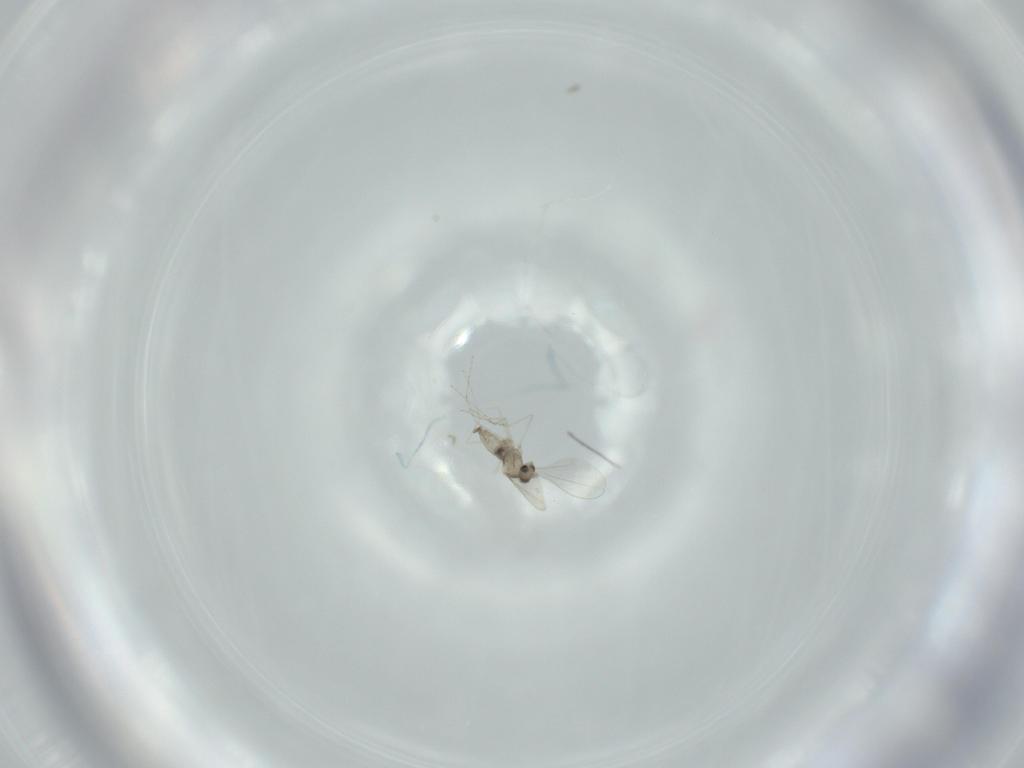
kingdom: Animalia
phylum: Arthropoda
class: Insecta
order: Diptera
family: Cecidomyiidae
